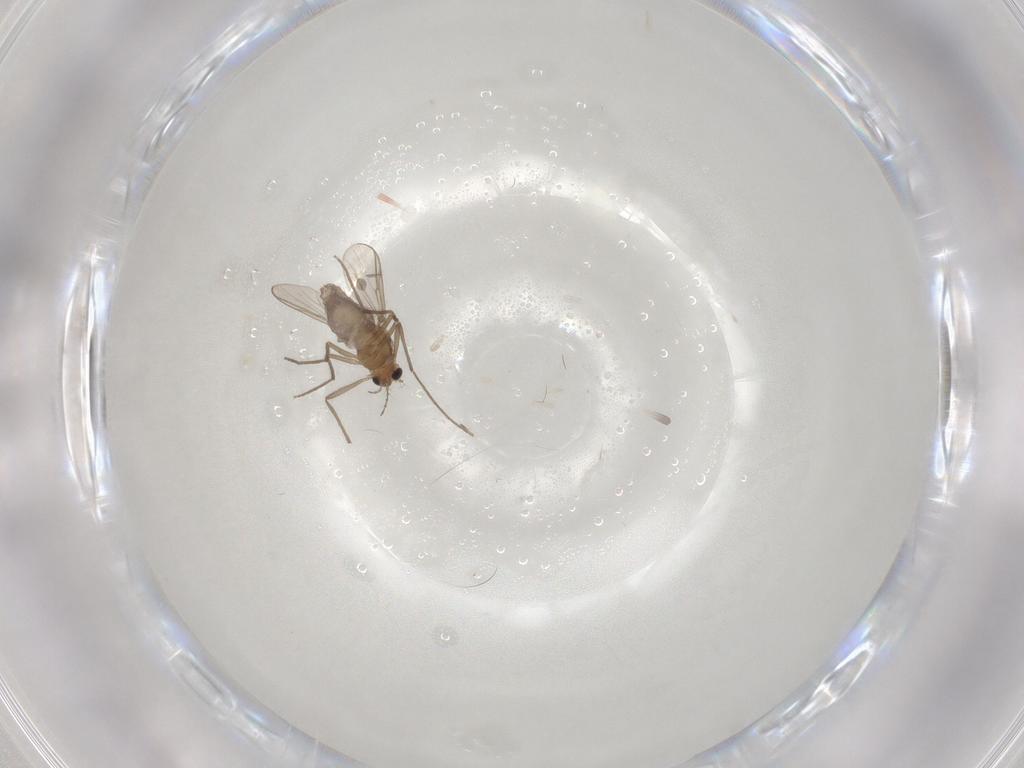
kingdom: Animalia
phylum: Arthropoda
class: Insecta
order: Diptera
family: Chironomidae
